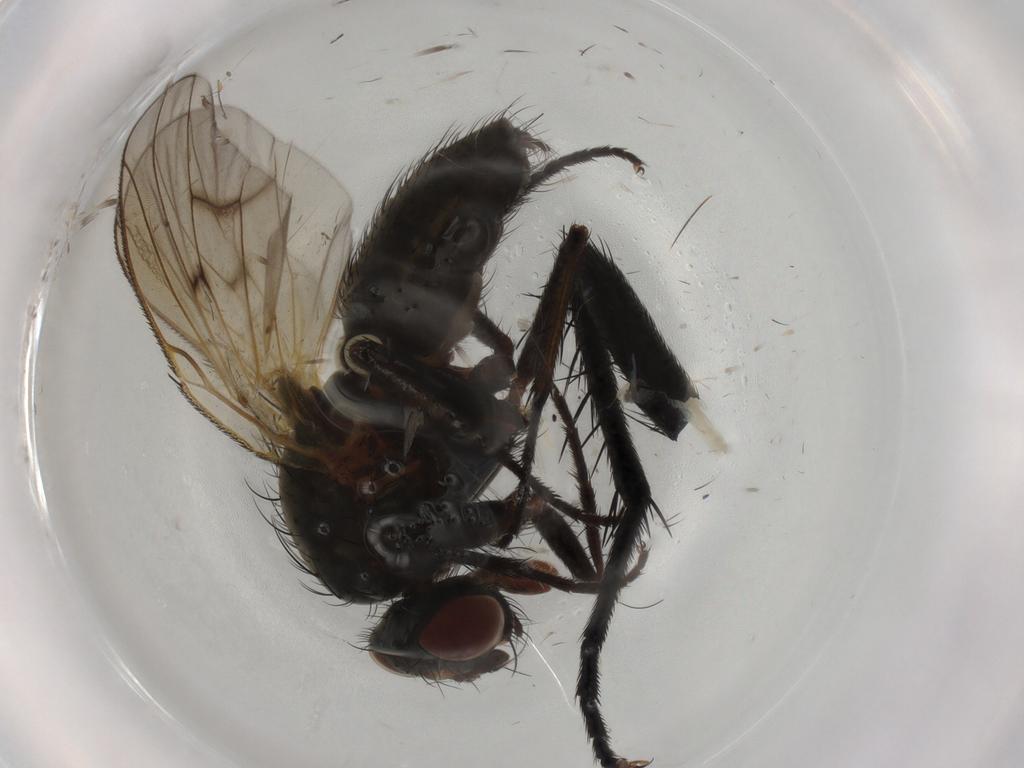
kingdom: Animalia
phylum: Arthropoda
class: Insecta
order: Diptera
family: Anthomyiidae
